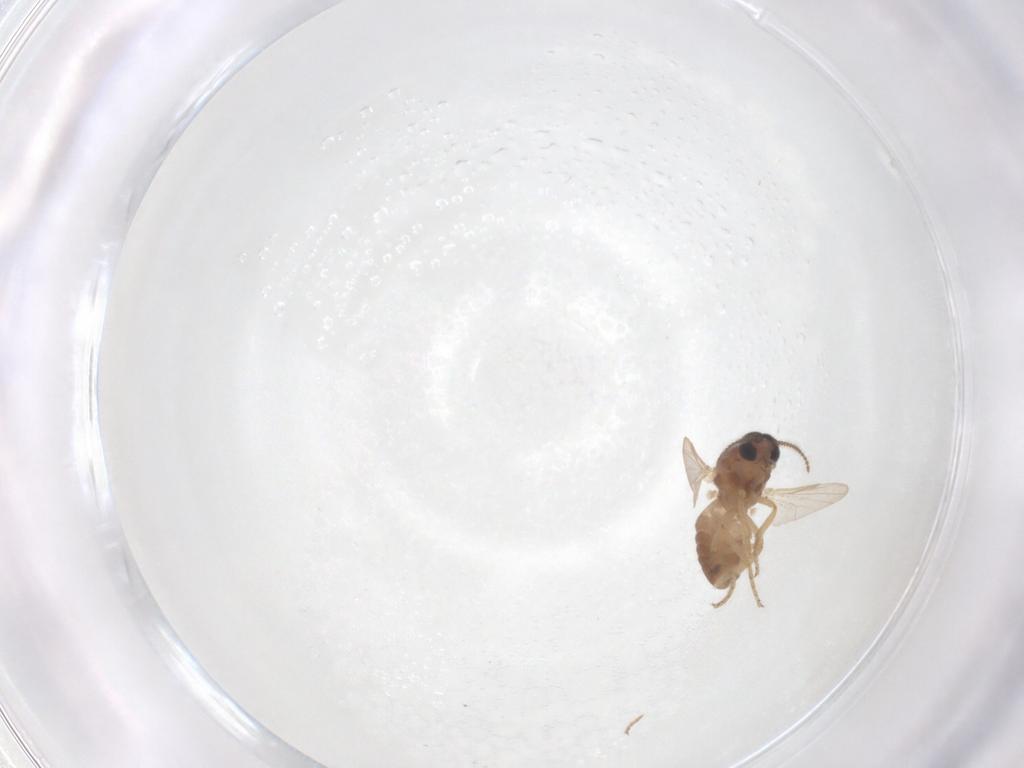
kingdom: Animalia
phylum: Arthropoda
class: Insecta
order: Diptera
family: Ceratopogonidae
